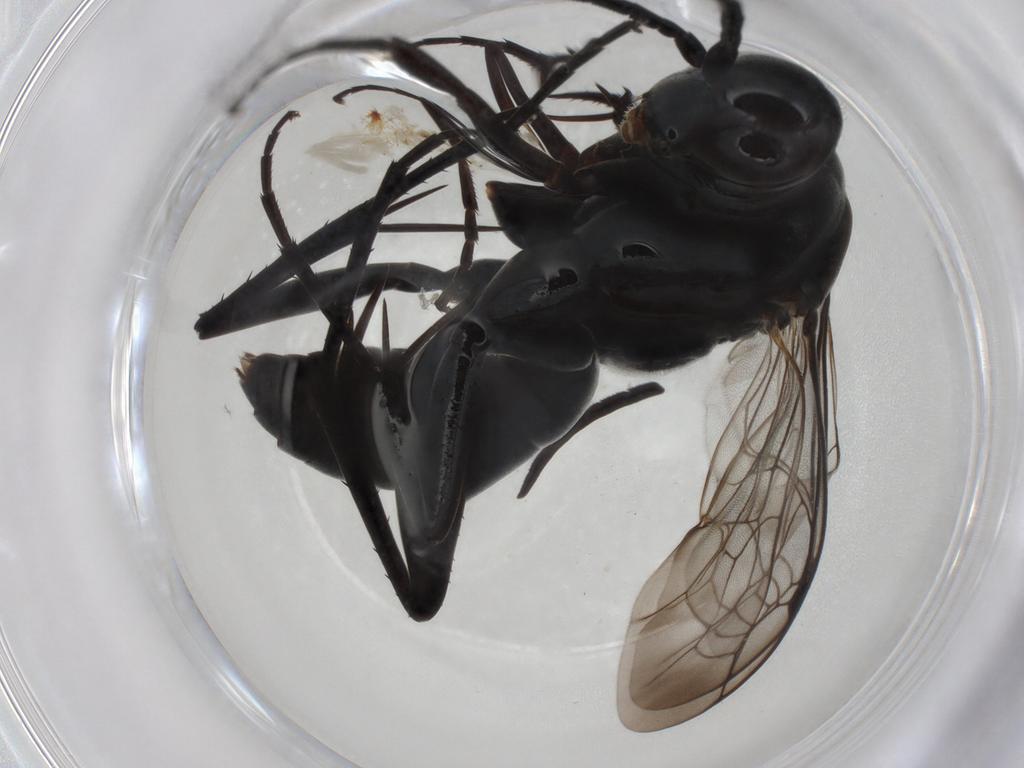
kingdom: Animalia
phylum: Arthropoda
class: Insecta
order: Hymenoptera
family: Pompilidae
